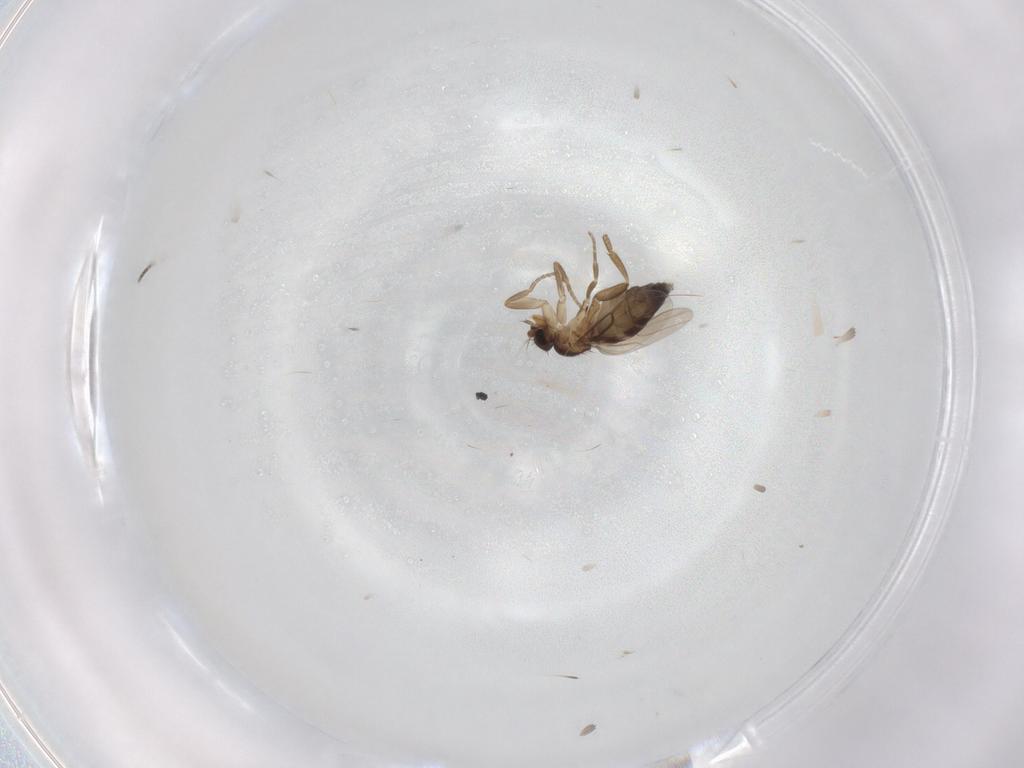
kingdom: Animalia
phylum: Arthropoda
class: Insecta
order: Diptera
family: Phoridae
